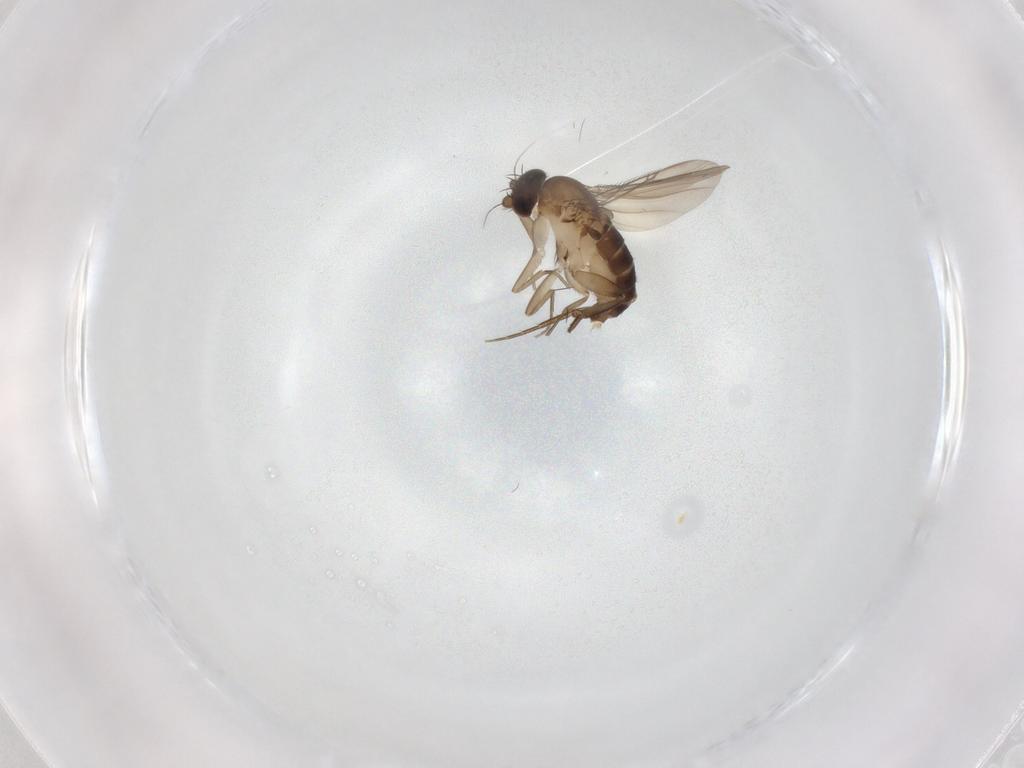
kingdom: Animalia
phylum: Arthropoda
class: Insecta
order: Diptera
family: Phoridae
